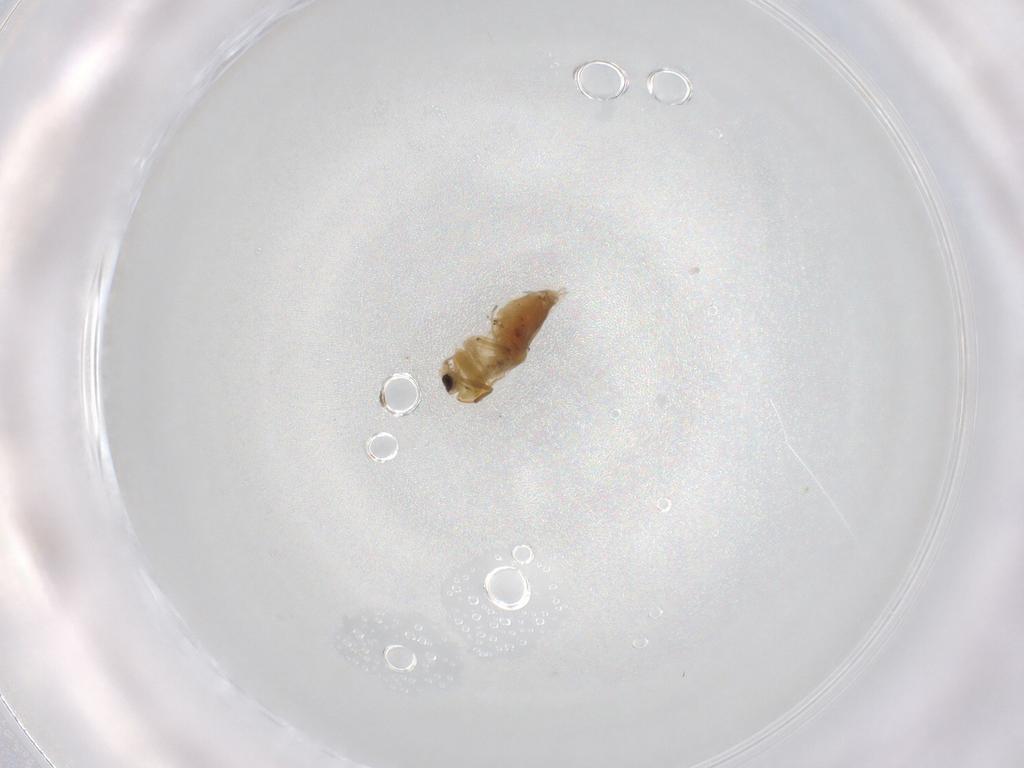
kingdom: Animalia
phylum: Arthropoda
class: Insecta
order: Diptera
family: Chironomidae
